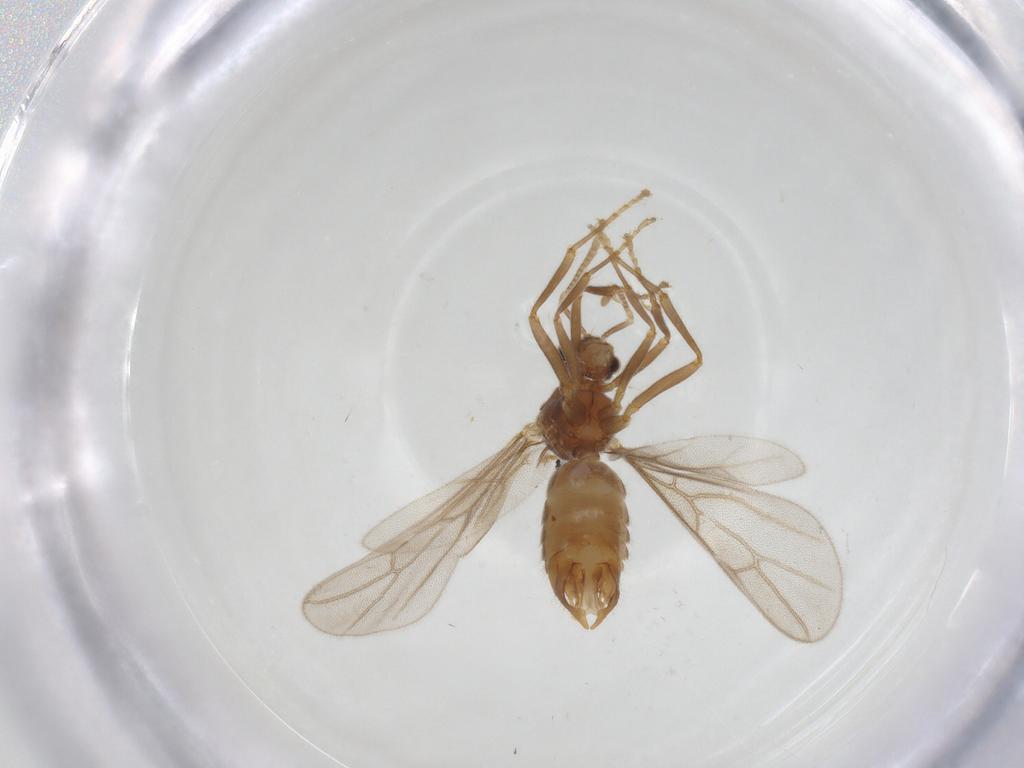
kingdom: Animalia
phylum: Arthropoda
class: Insecta
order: Hymenoptera
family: Formicidae
